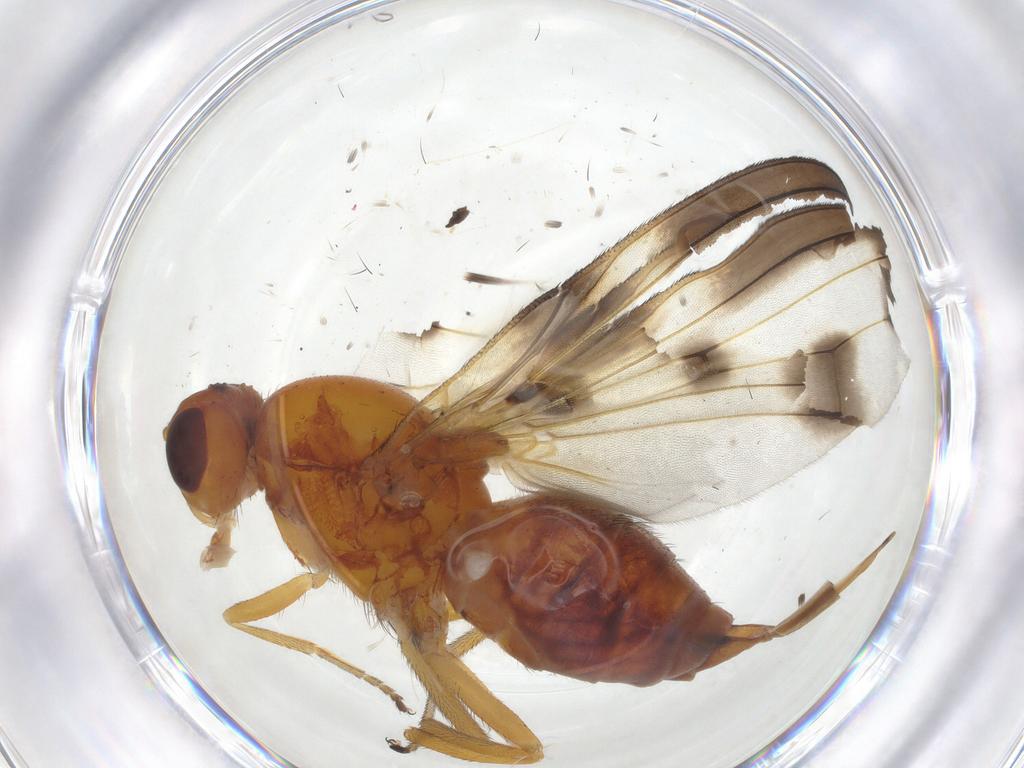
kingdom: Animalia
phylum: Arthropoda
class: Insecta
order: Diptera
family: Pallopteridae
